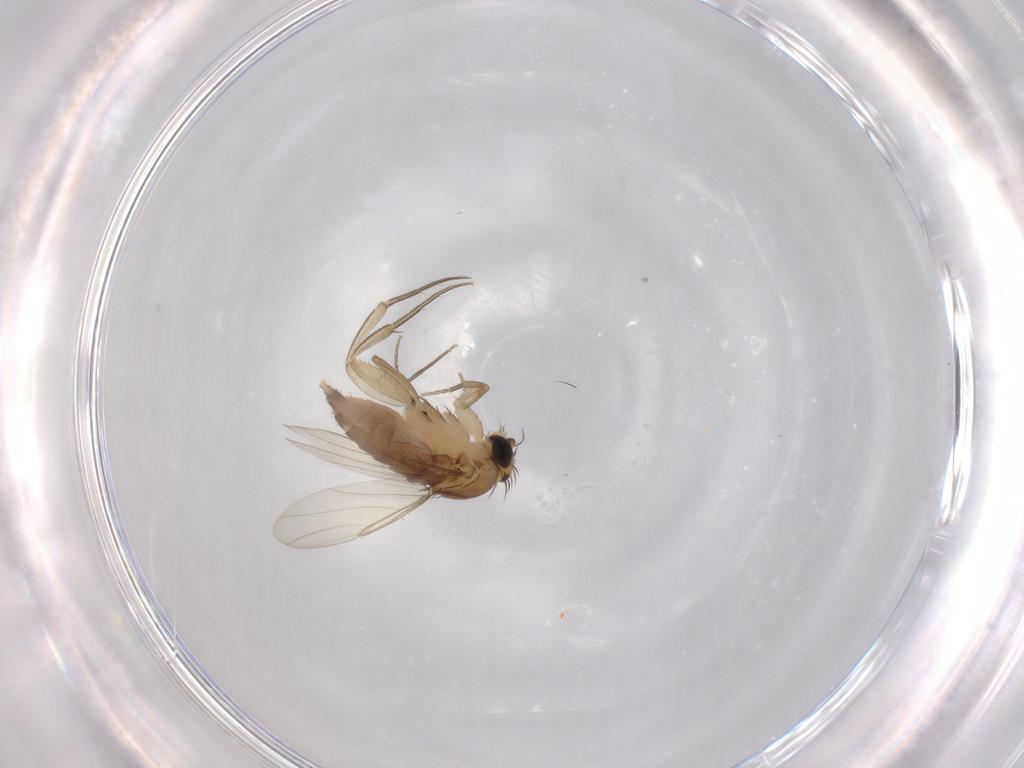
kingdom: Animalia
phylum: Arthropoda
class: Insecta
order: Diptera
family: Phoridae
